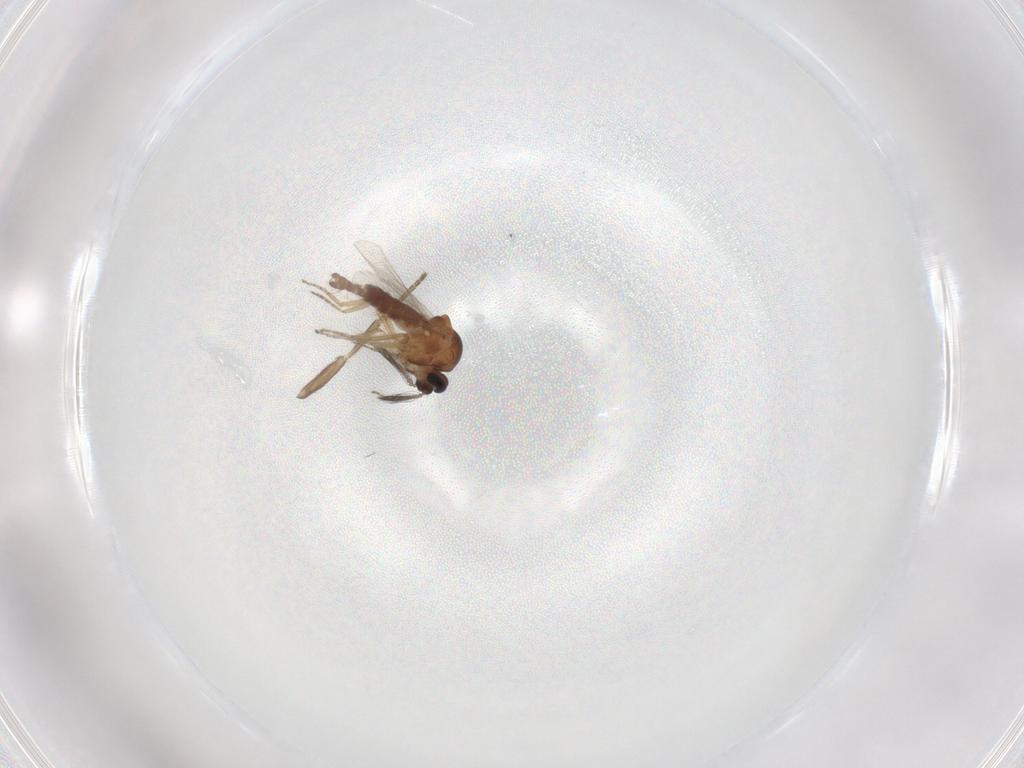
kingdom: Animalia
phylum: Arthropoda
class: Insecta
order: Diptera
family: Ceratopogonidae
